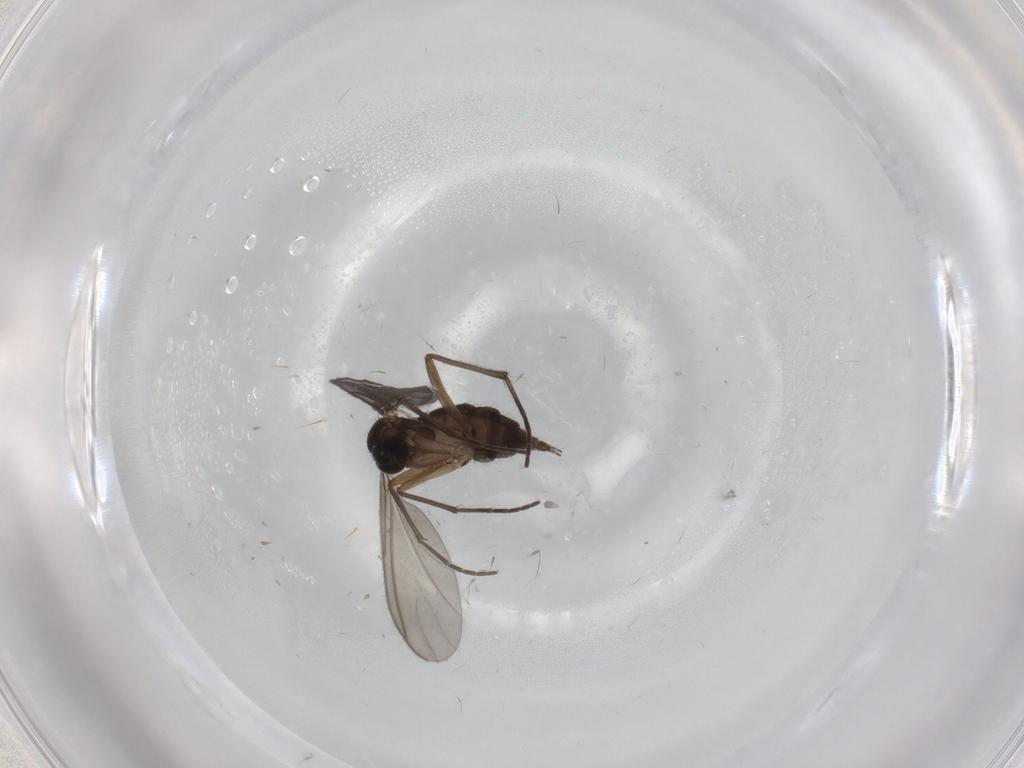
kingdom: Animalia
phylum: Arthropoda
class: Insecta
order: Diptera
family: Sciaridae
